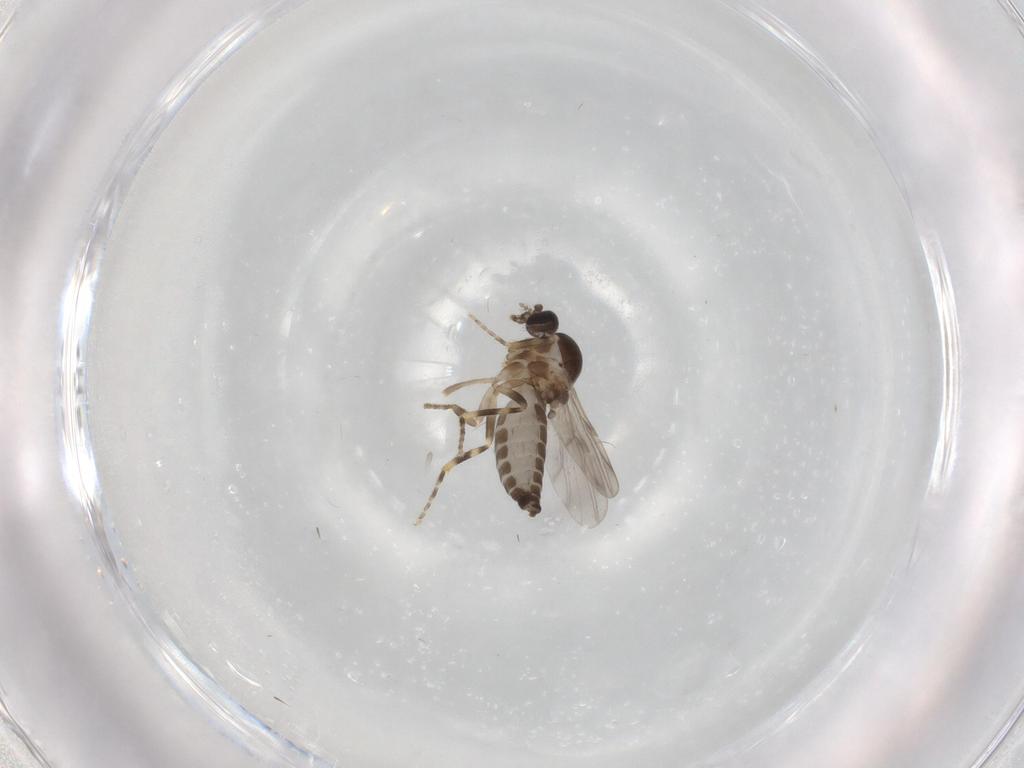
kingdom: Animalia
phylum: Arthropoda
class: Insecta
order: Diptera
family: Ceratopogonidae
